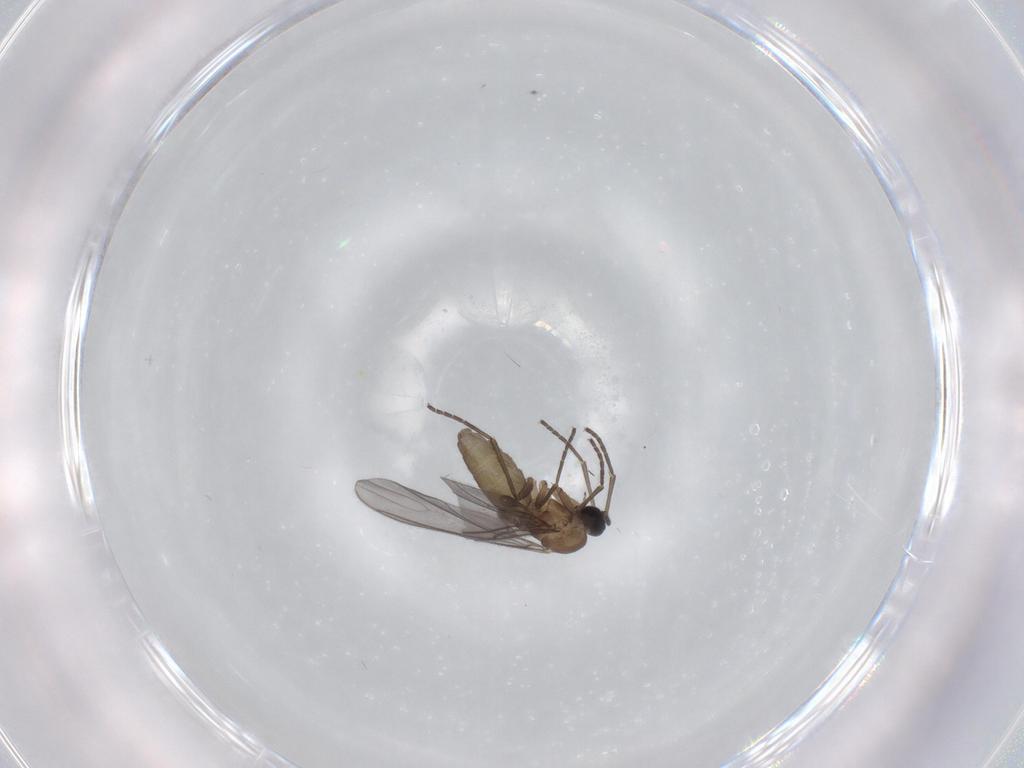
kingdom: Animalia
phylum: Arthropoda
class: Insecta
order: Diptera
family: Sciaridae
